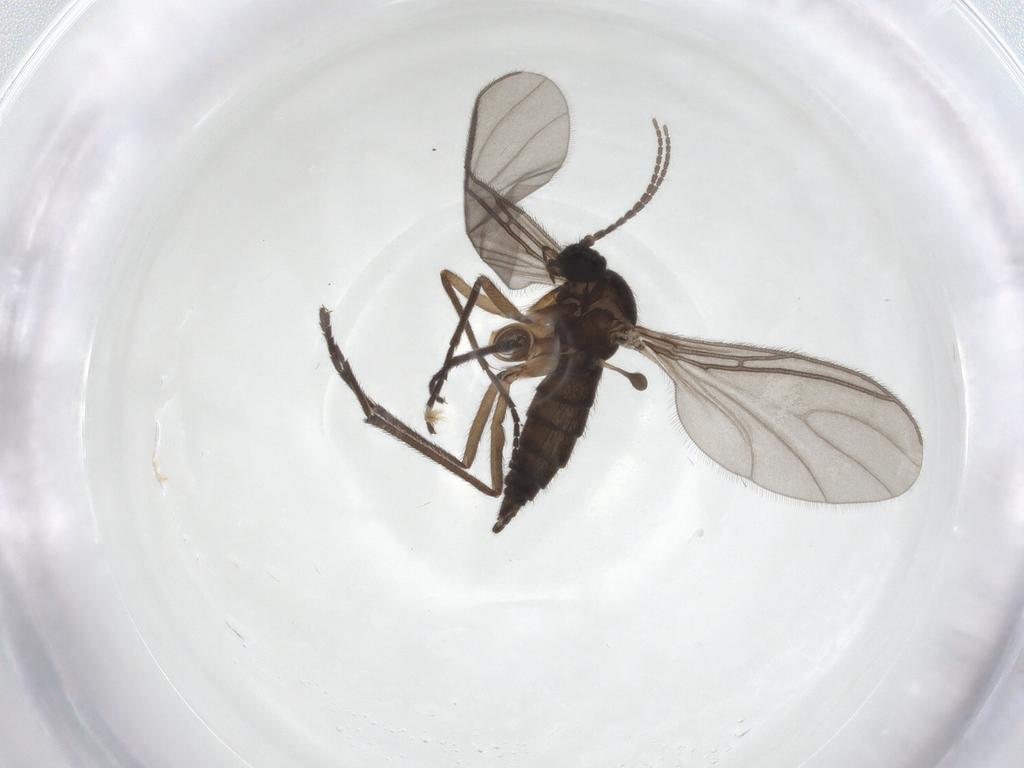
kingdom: Animalia
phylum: Arthropoda
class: Insecta
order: Diptera
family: Sciaridae
